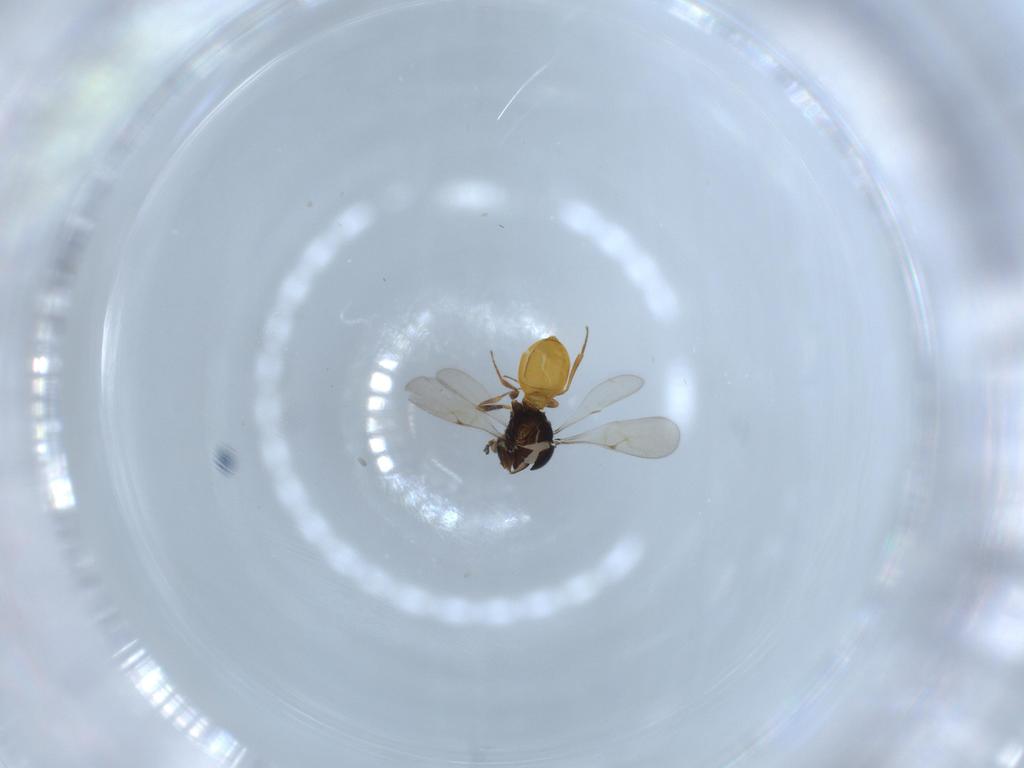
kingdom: Animalia
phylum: Arthropoda
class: Insecta
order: Hymenoptera
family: Scelionidae
